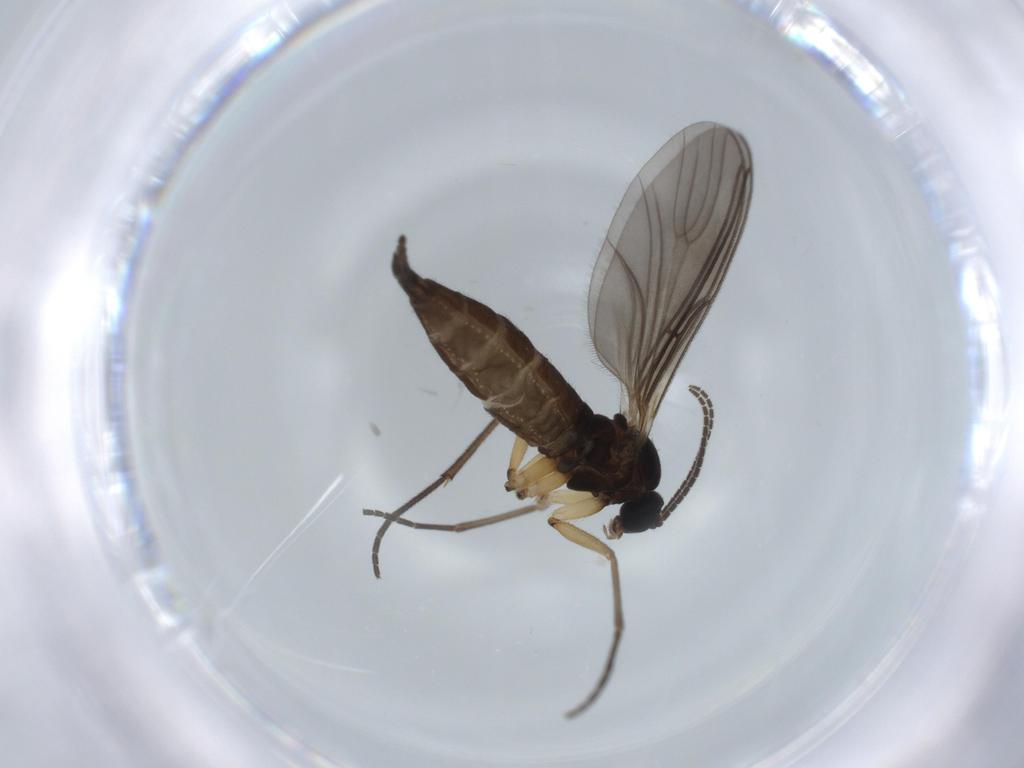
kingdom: Animalia
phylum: Arthropoda
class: Insecta
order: Diptera
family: Sciaridae
